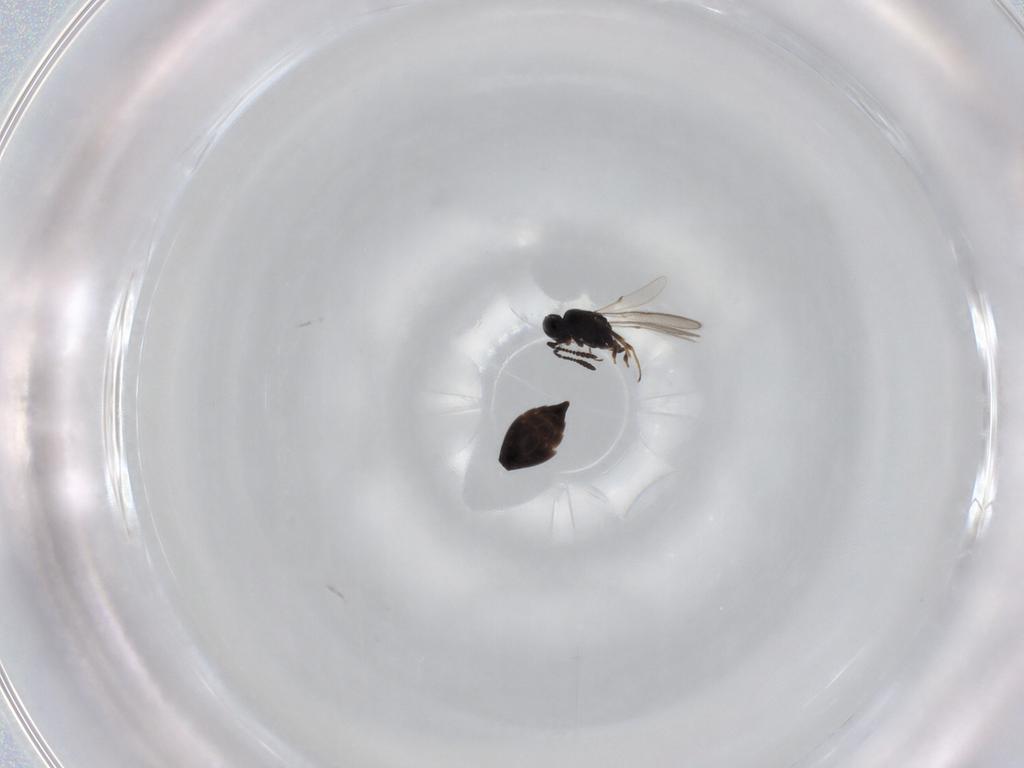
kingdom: Animalia
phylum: Arthropoda
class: Insecta
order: Hymenoptera
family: Scelionidae
